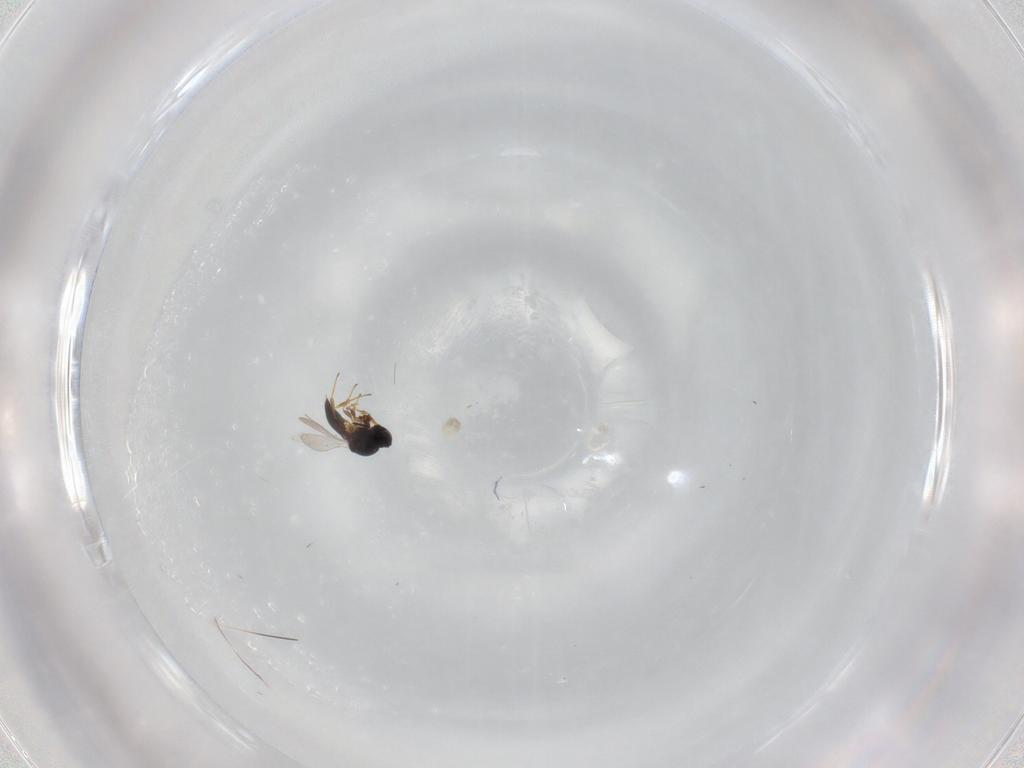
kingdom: Animalia
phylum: Arthropoda
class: Insecta
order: Hymenoptera
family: Platygastridae
